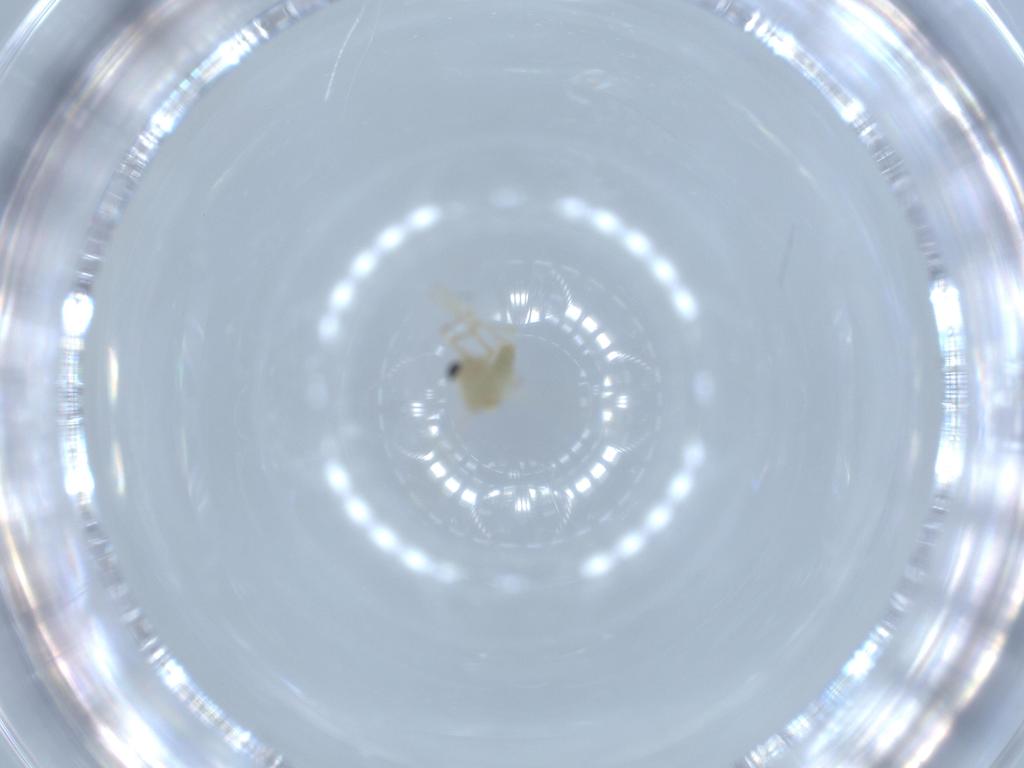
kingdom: Animalia
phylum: Arthropoda
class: Insecta
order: Diptera
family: Chironomidae
